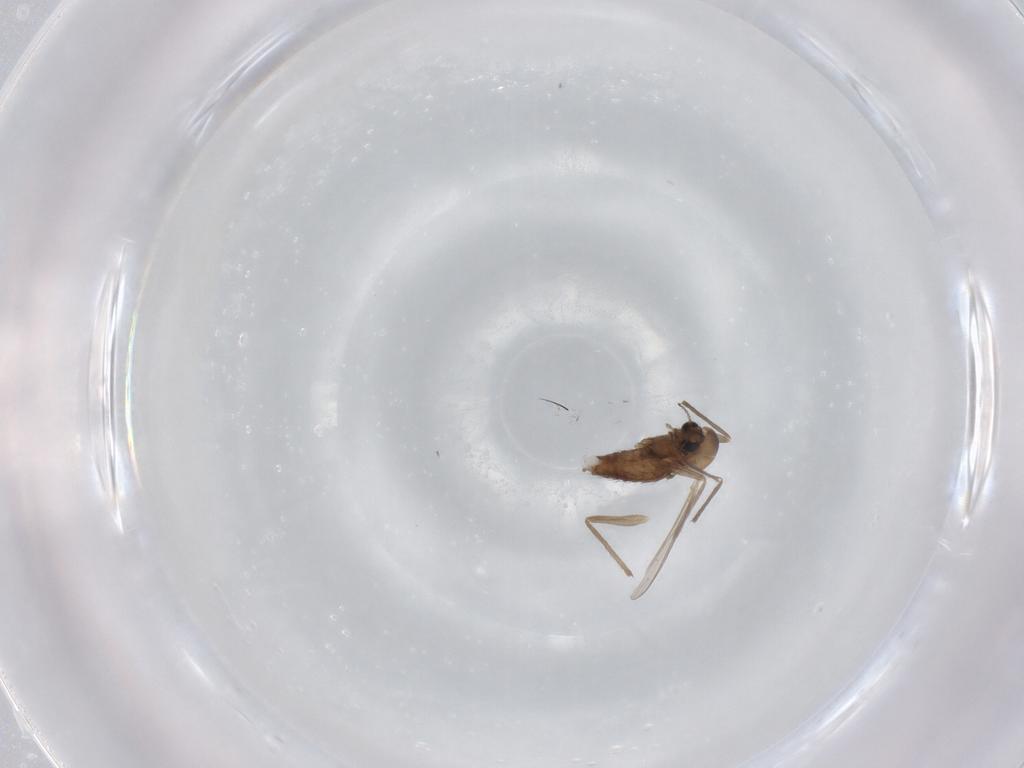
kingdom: Animalia
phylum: Arthropoda
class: Insecta
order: Diptera
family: Chironomidae
